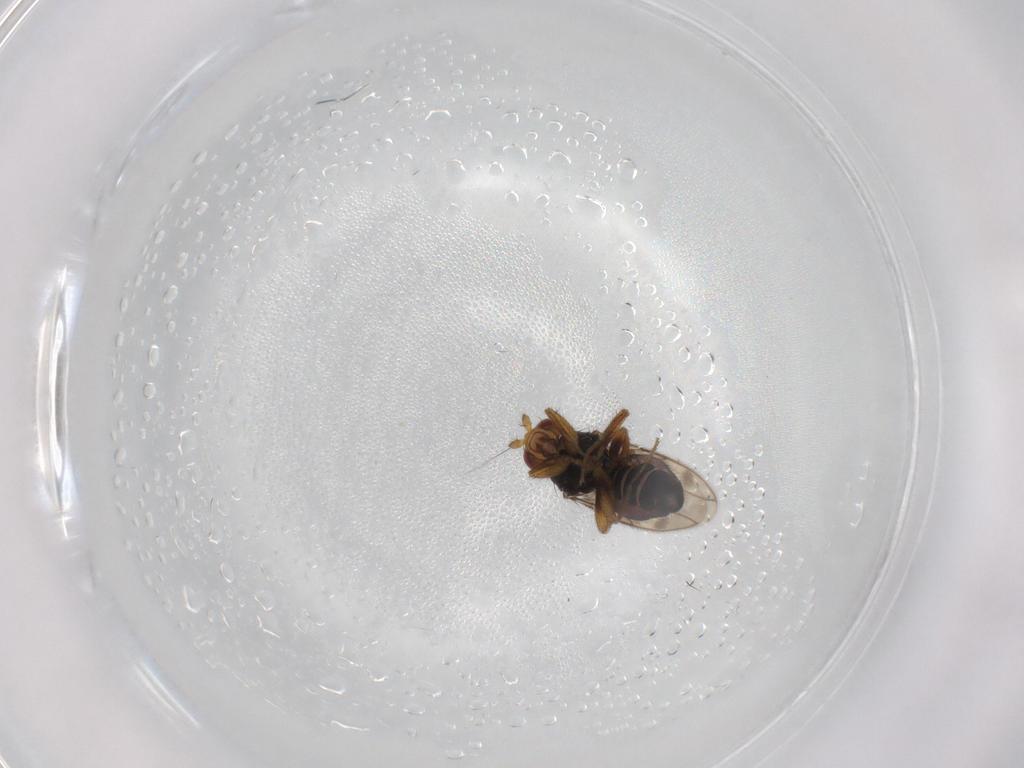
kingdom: Animalia
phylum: Arthropoda
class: Insecta
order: Diptera
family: Sphaeroceridae
